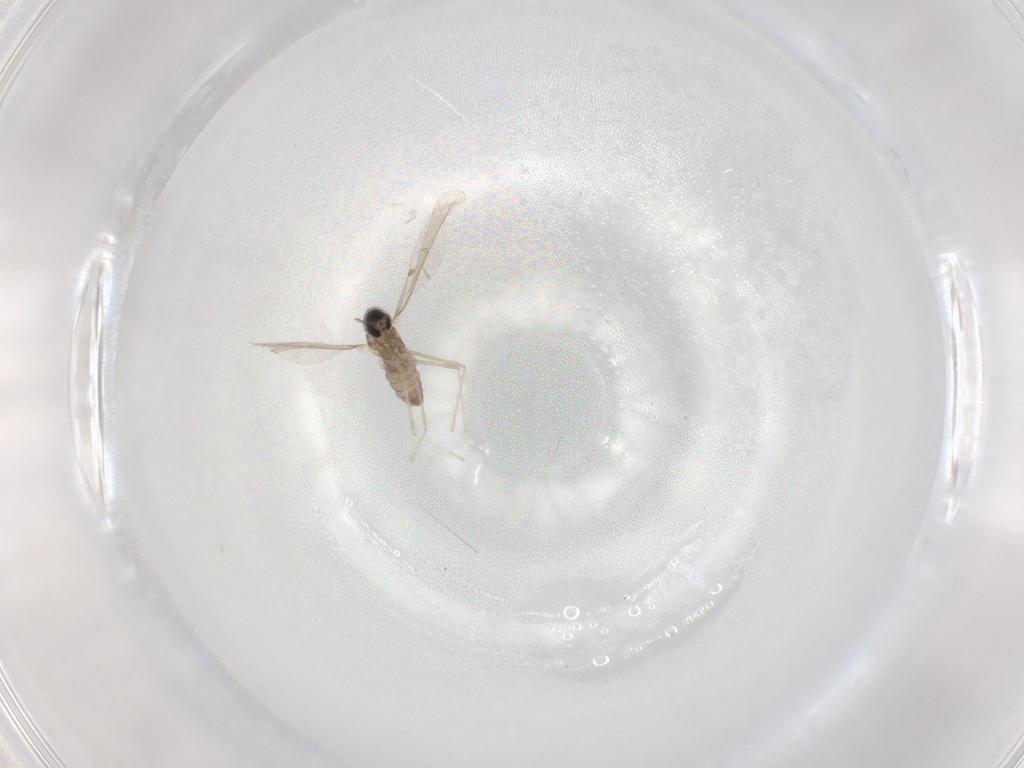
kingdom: Animalia
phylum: Arthropoda
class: Insecta
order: Diptera
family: Cecidomyiidae
